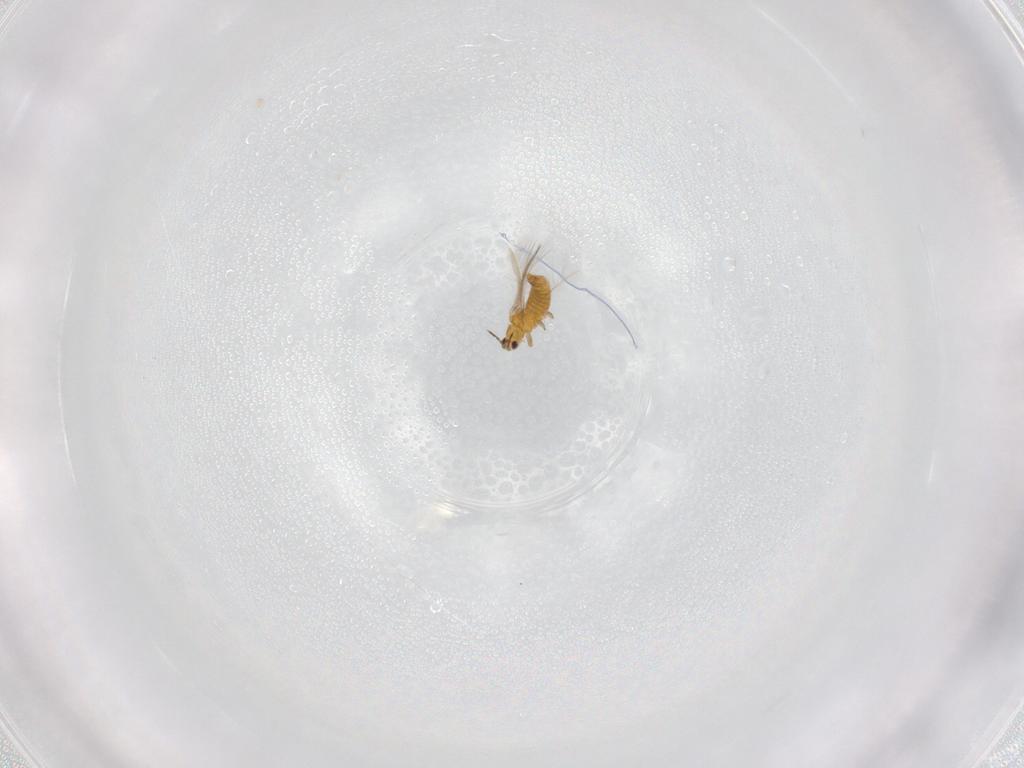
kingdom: Animalia
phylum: Arthropoda
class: Insecta
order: Thysanoptera
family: Thripidae
